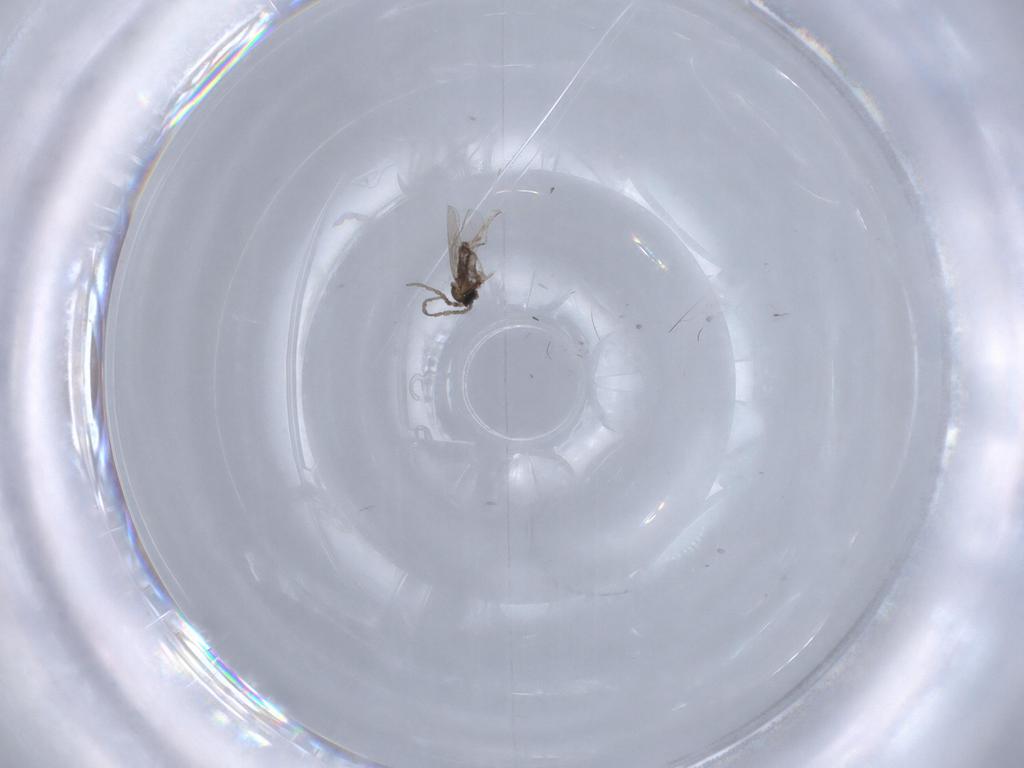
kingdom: Animalia
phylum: Arthropoda
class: Insecta
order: Diptera
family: Cecidomyiidae
